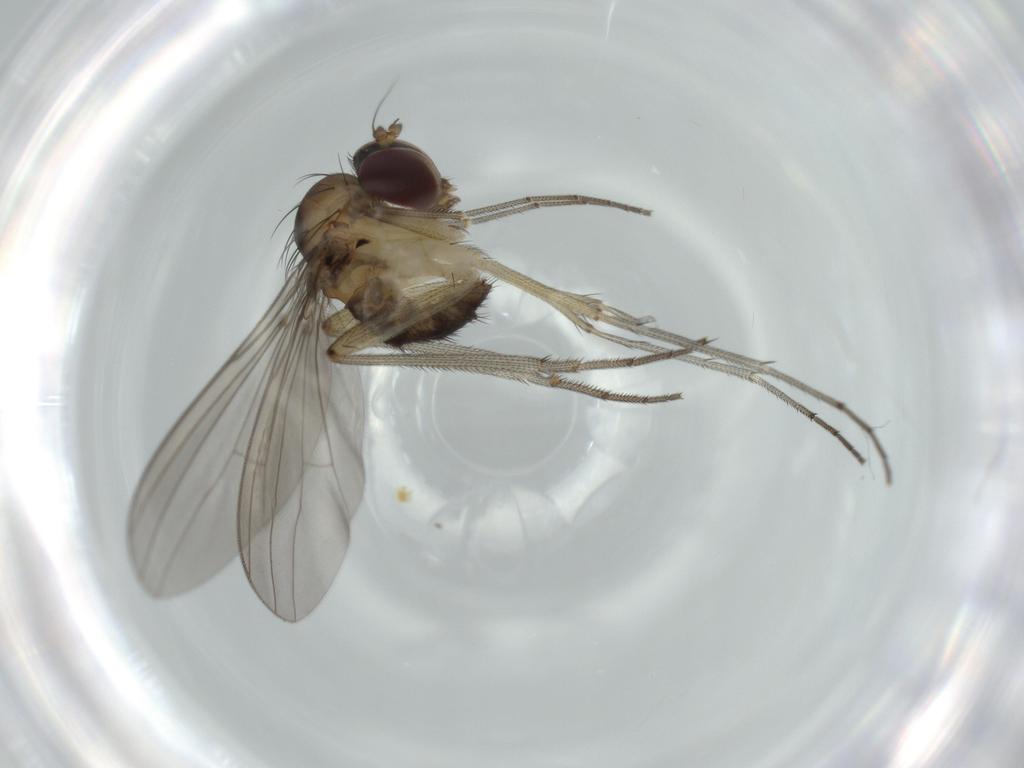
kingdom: Animalia
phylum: Arthropoda
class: Insecta
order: Diptera
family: Dolichopodidae
